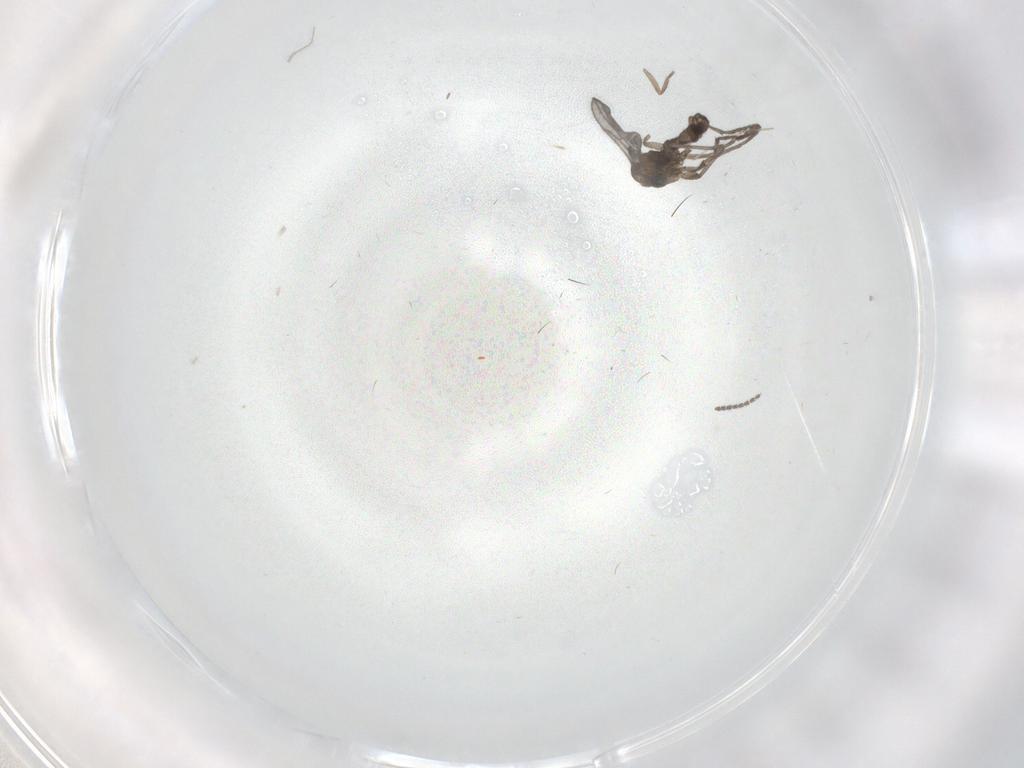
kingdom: Animalia
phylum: Arthropoda
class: Insecta
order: Diptera
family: Sciaridae
